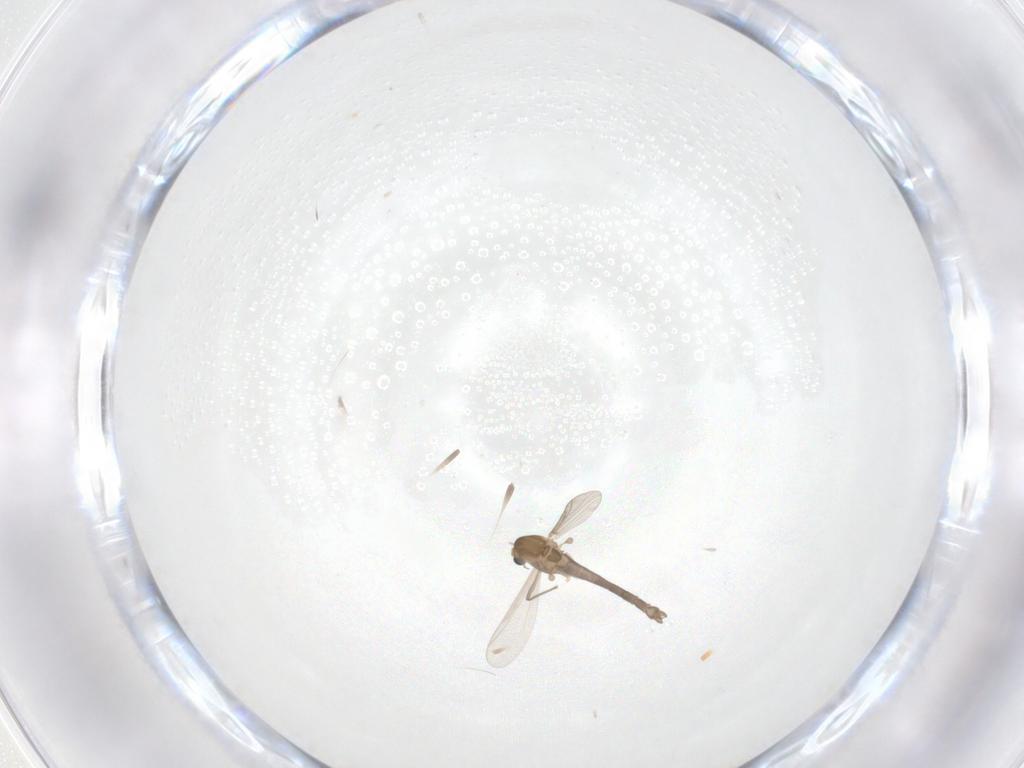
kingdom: Animalia
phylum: Arthropoda
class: Insecta
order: Diptera
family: Chironomidae
